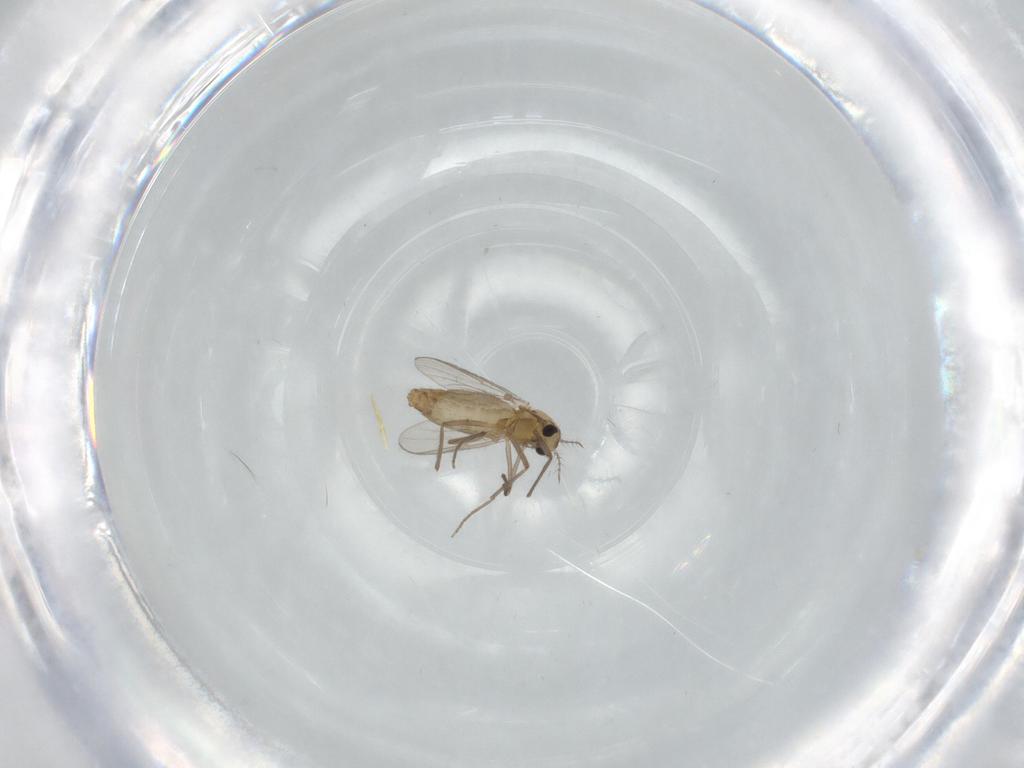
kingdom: Animalia
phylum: Arthropoda
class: Insecta
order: Diptera
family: Chironomidae
